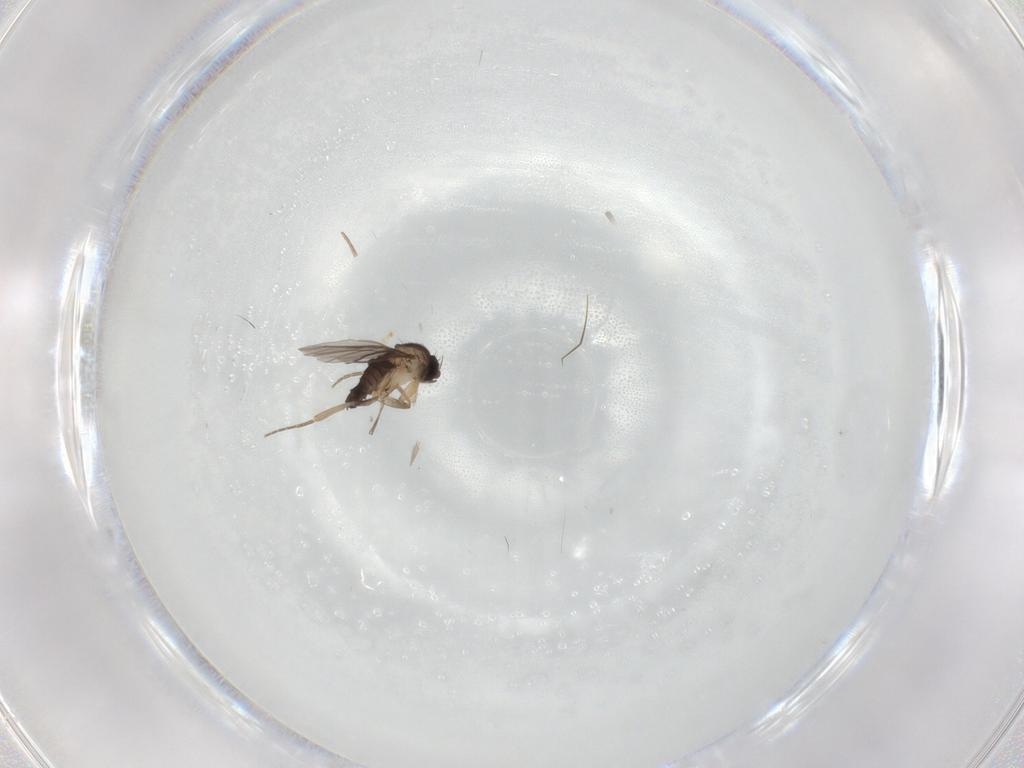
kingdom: Animalia
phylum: Arthropoda
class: Insecta
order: Diptera
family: Phoridae
